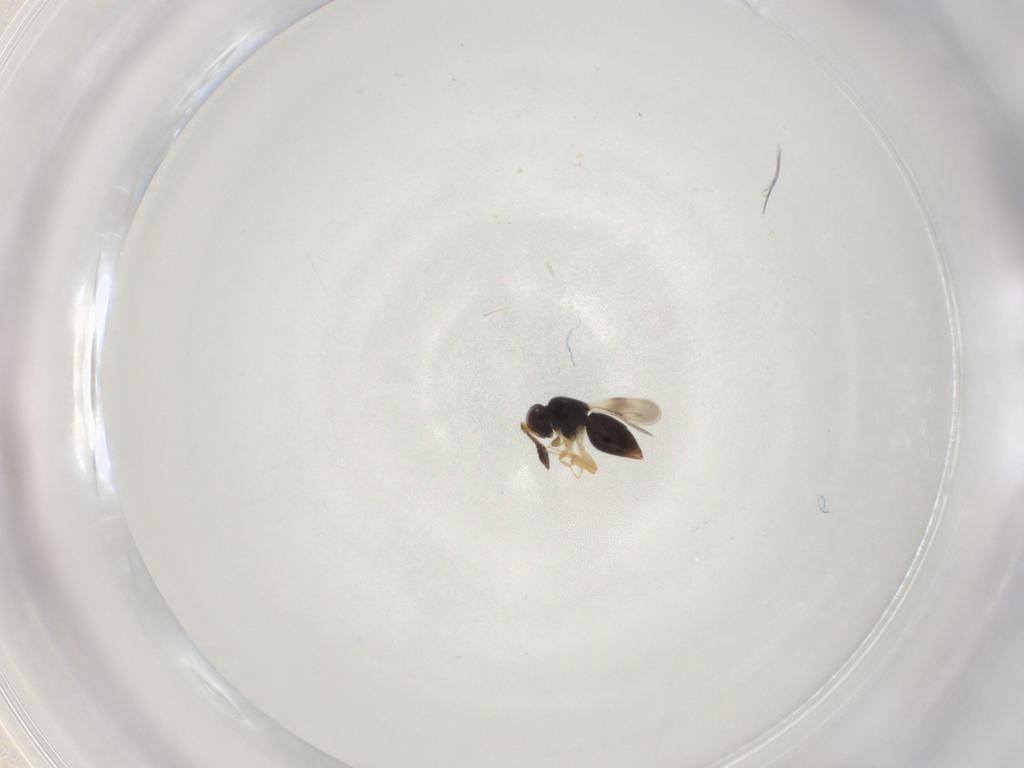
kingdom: Animalia
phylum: Arthropoda
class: Insecta
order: Hymenoptera
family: Scelionidae
